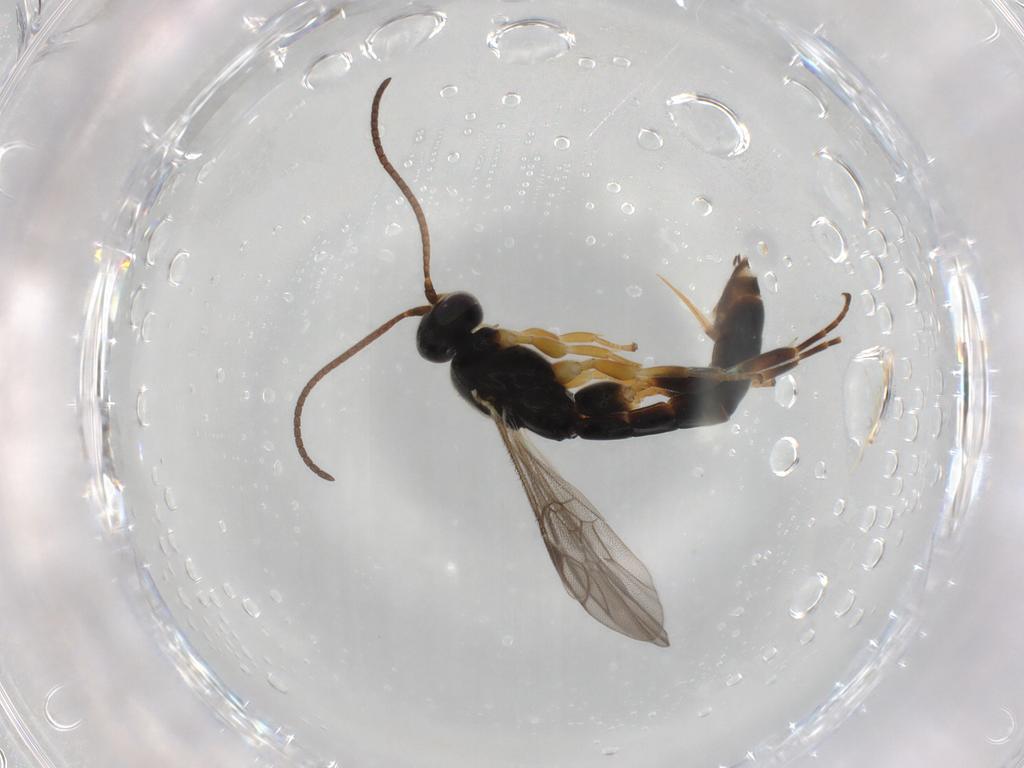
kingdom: Animalia
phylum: Arthropoda
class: Insecta
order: Hymenoptera
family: Ichneumonidae
